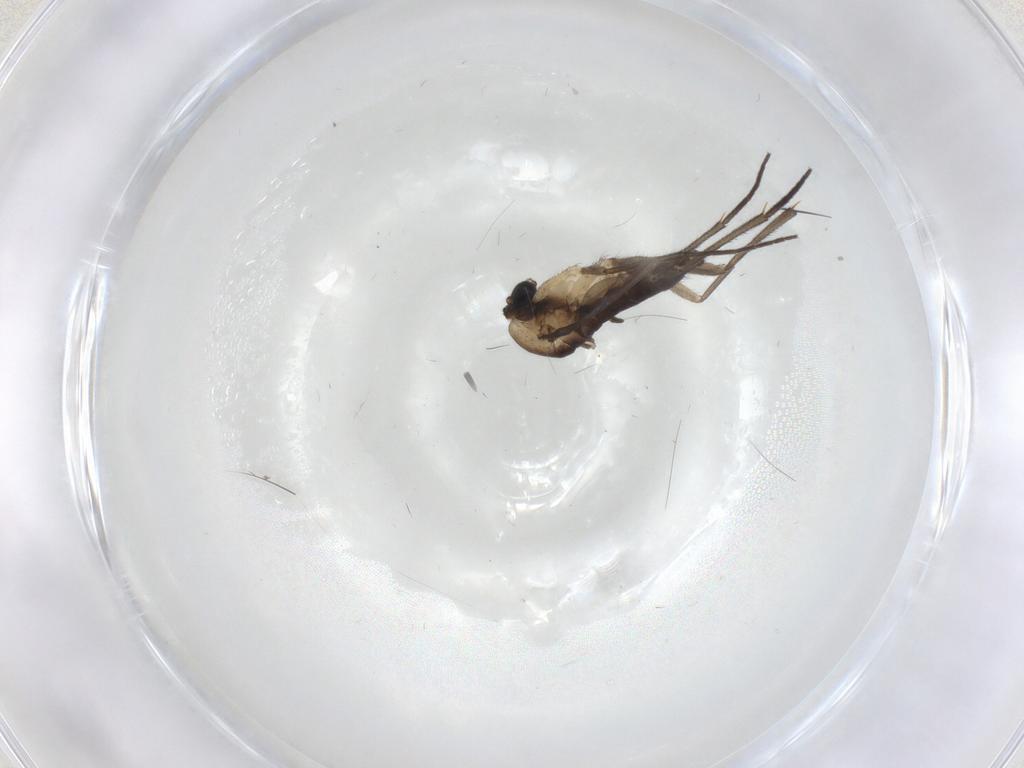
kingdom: Animalia
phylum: Arthropoda
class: Insecta
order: Diptera
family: Sciaridae
